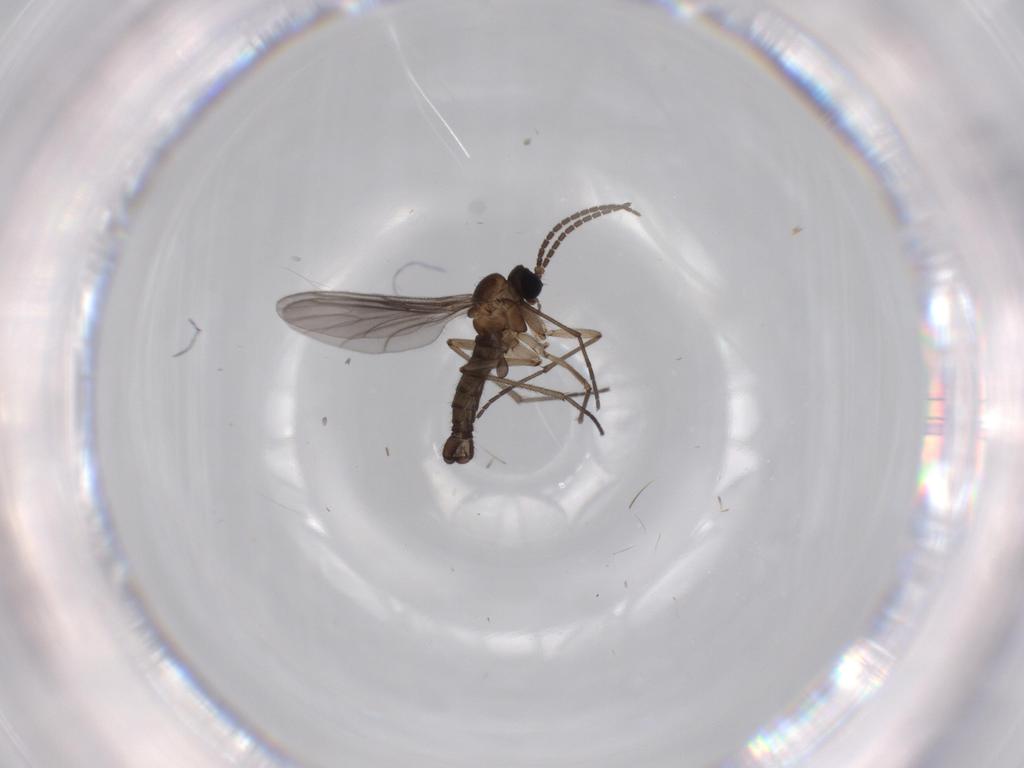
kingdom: Animalia
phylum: Arthropoda
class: Insecta
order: Diptera
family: Sciaridae
